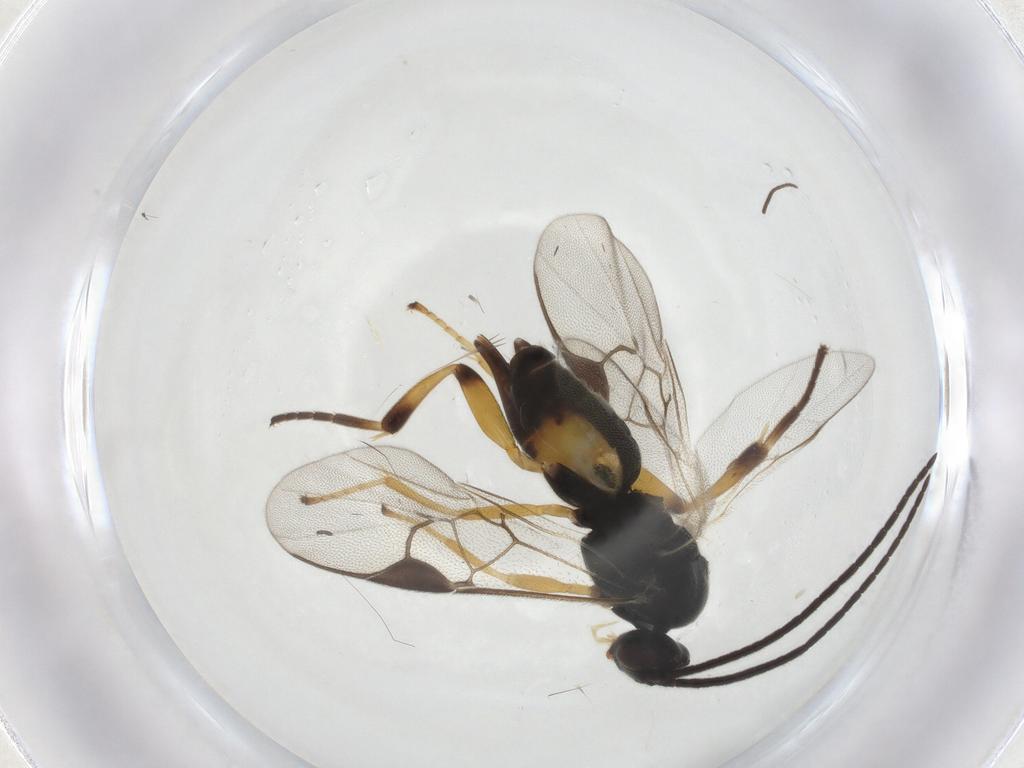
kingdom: Animalia
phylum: Arthropoda
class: Insecta
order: Hymenoptera
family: Braconidae
